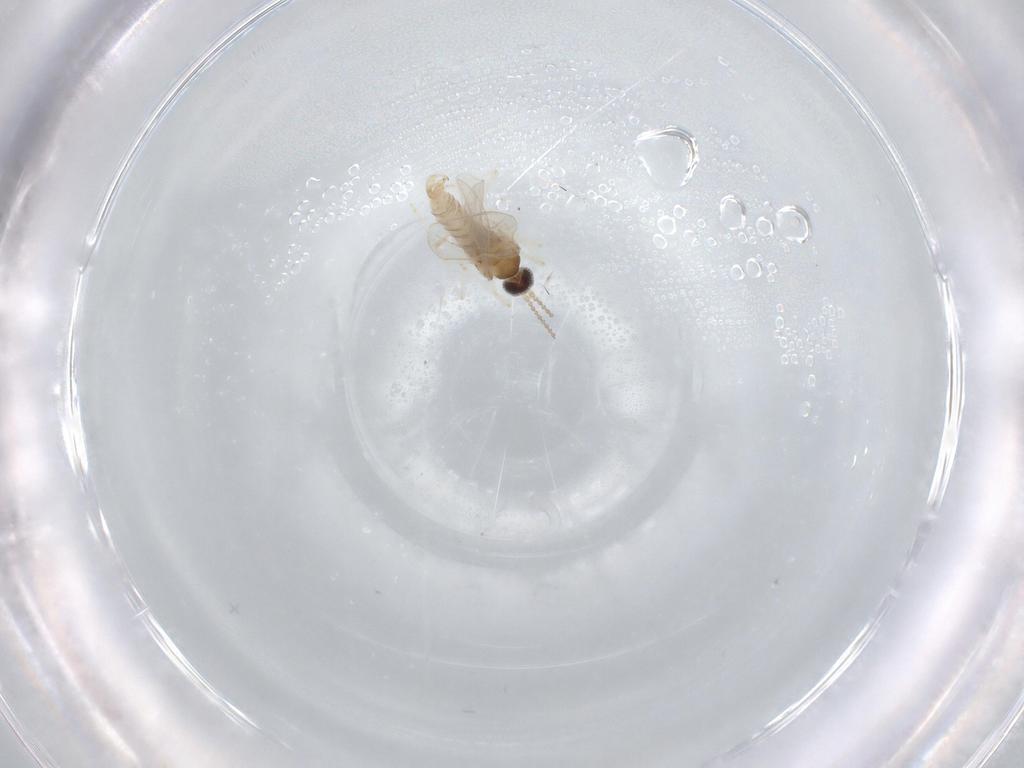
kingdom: Animalia
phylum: Arthropoda
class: Insecta
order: Diptera
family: Cecidomyiidae
